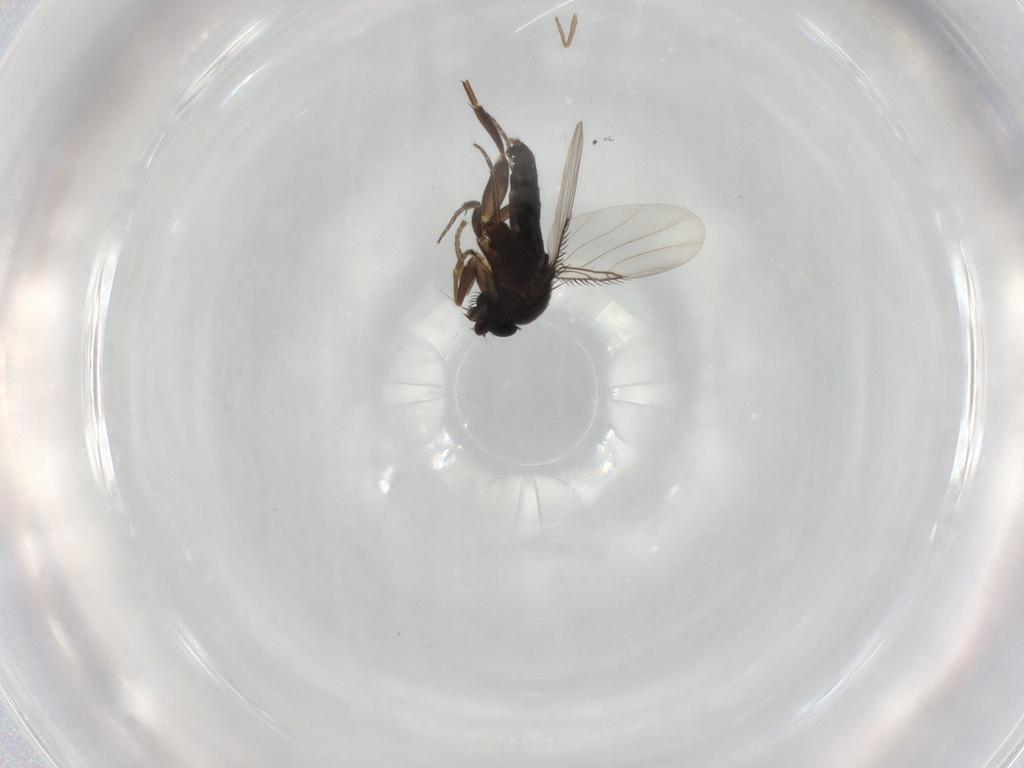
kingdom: Animalia
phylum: Arthropoda
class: Insecta
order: Diptera
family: Phoridae
